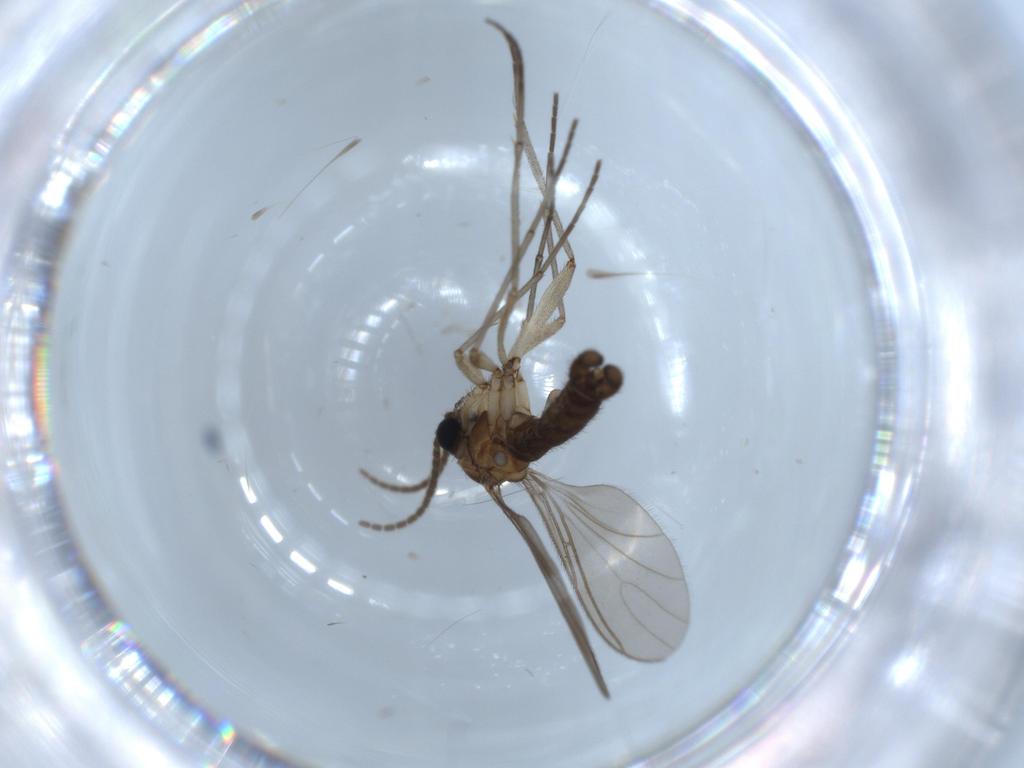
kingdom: Animalia
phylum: Arthropoda
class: Insecta
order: Diptera
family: Sciaridae
